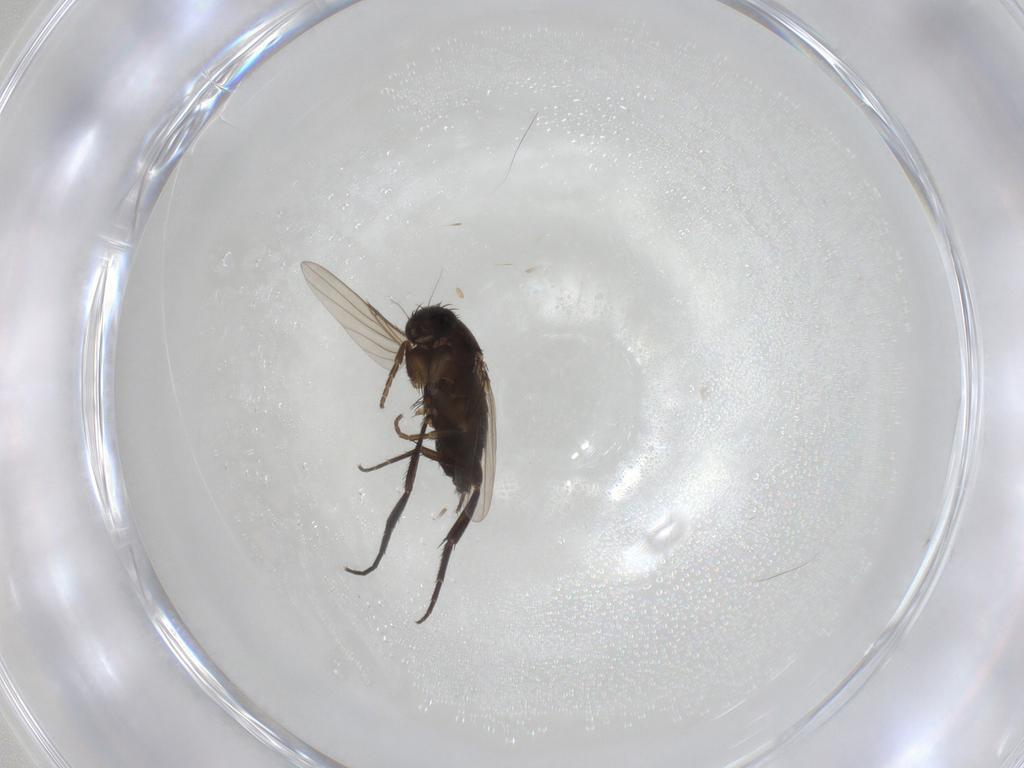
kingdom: Animalia
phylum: Arthropoda
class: Insecta
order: Diptera
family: Phoridae
